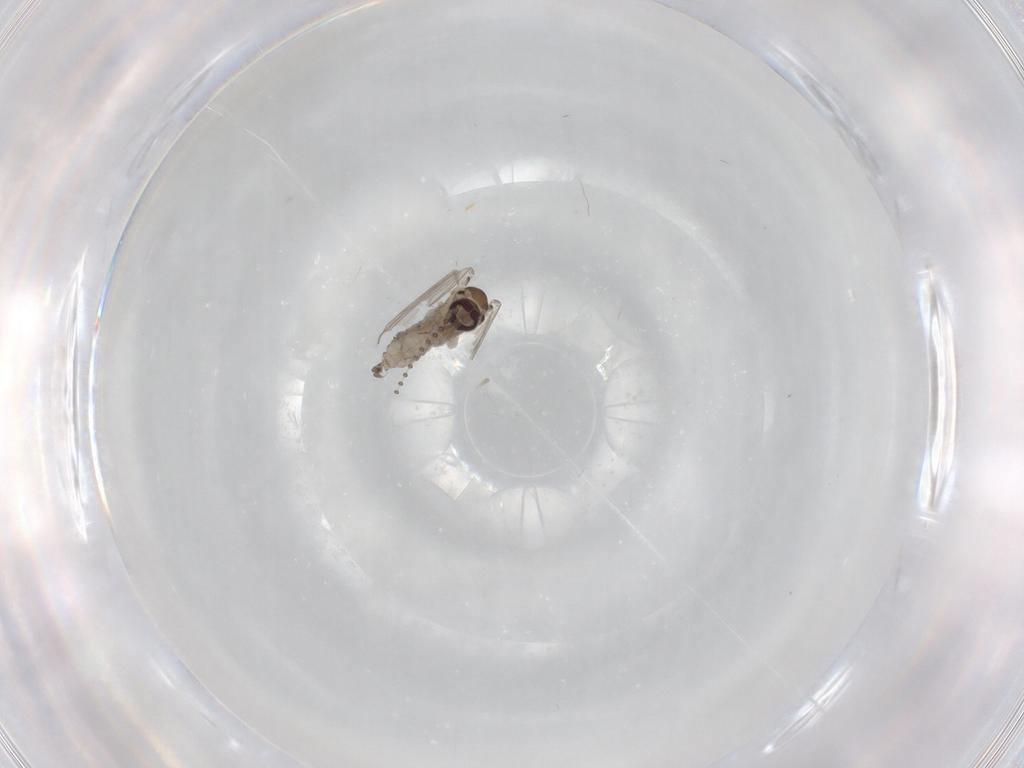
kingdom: Animalia
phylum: Arthropoda
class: Insecta
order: Diptera
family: Psychodidae
